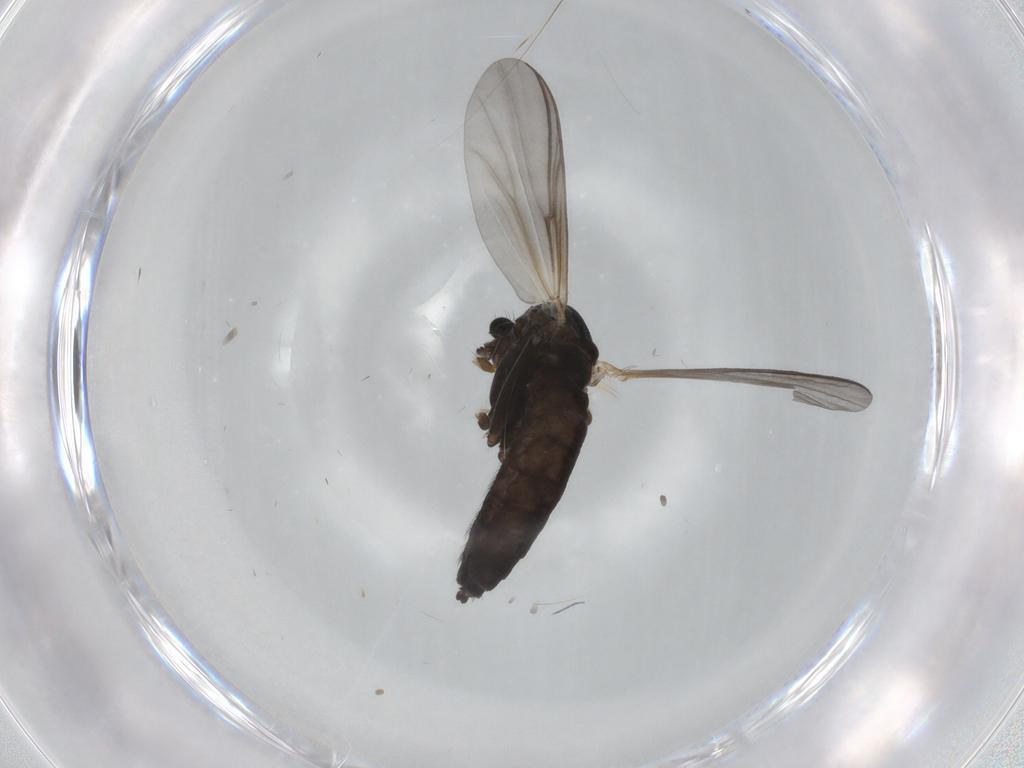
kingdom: Animalia
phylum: Arthropoda
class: Insecta
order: Diptera
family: Chironomidae
